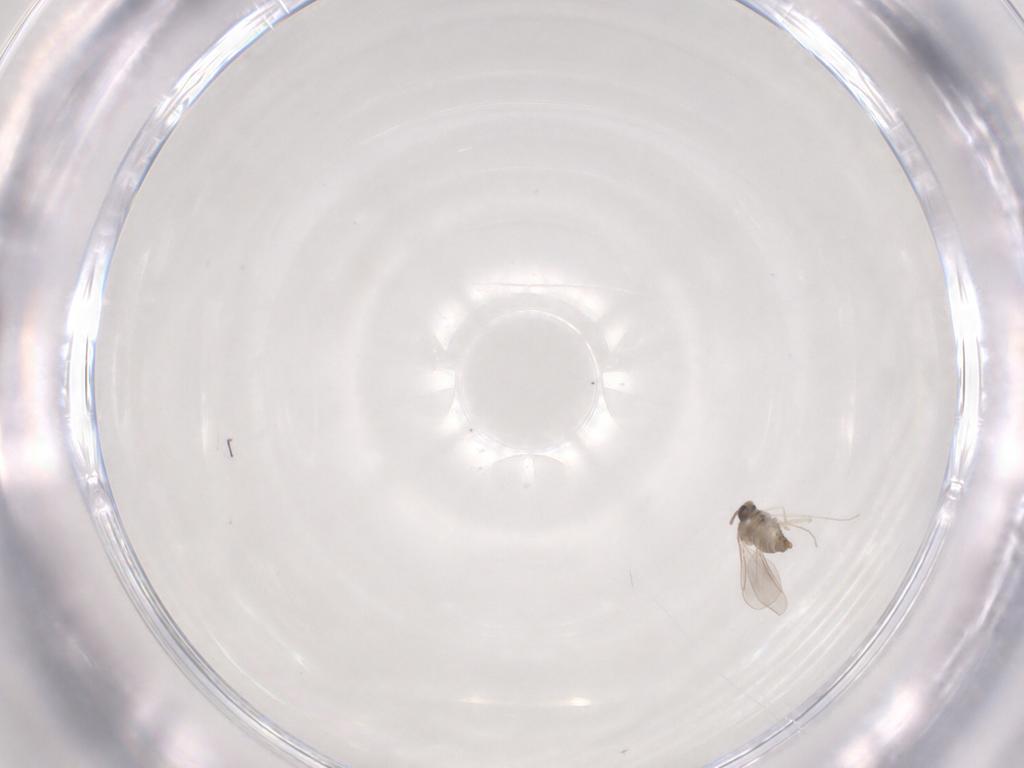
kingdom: Animalia
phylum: Arthropoda
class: Insecta
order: Diptera
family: Cecidomyiidae
